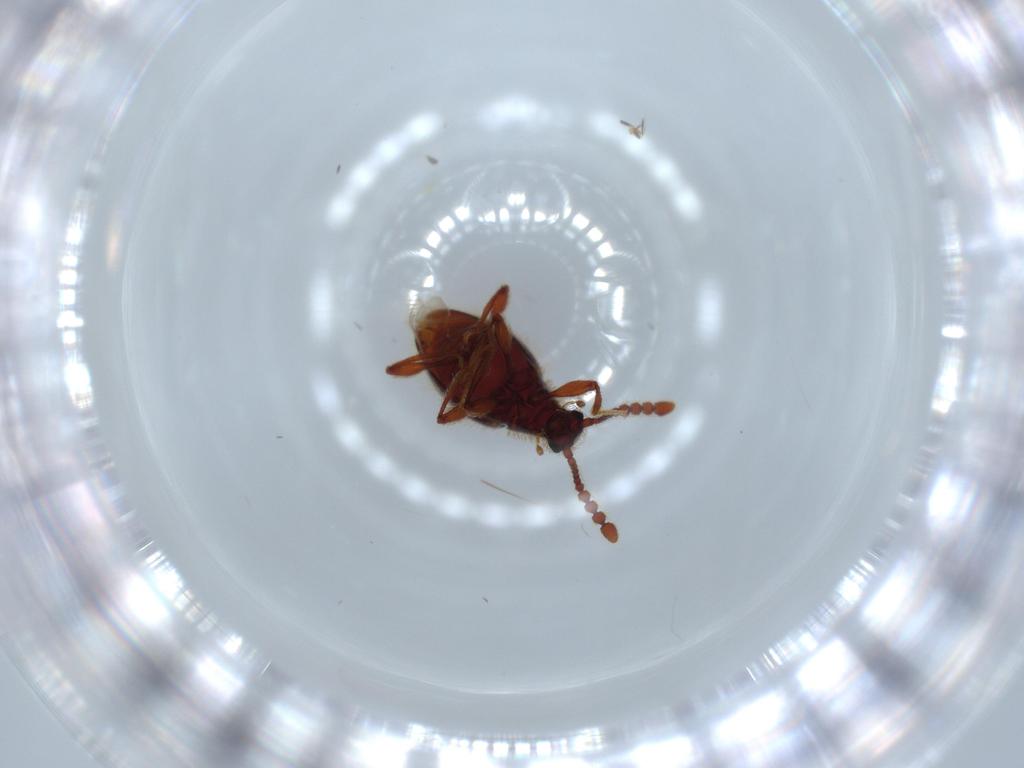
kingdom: Animalia
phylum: Arthropoda
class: Insecta
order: Coleoptera
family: Staphylinidae
